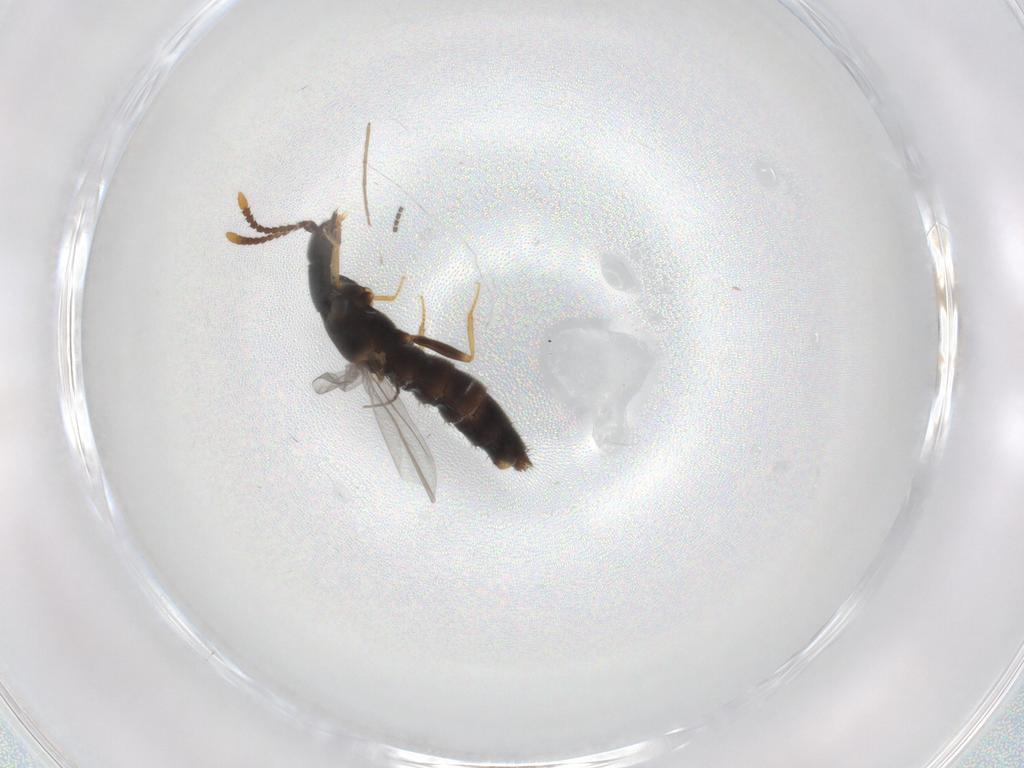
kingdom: Animalia
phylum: Arthropoda
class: Insecta
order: Coleoptera
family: Staphylinidae
